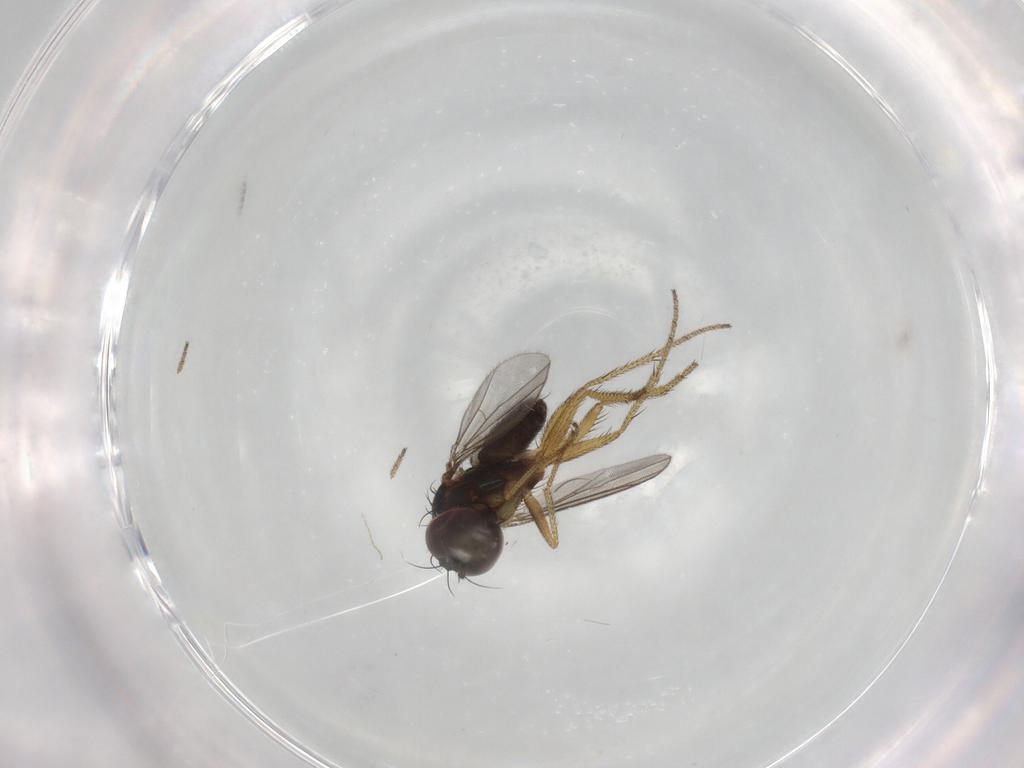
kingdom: Animalia
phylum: Arthropoda
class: Insecta
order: Diptera
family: Dolichopodidae
